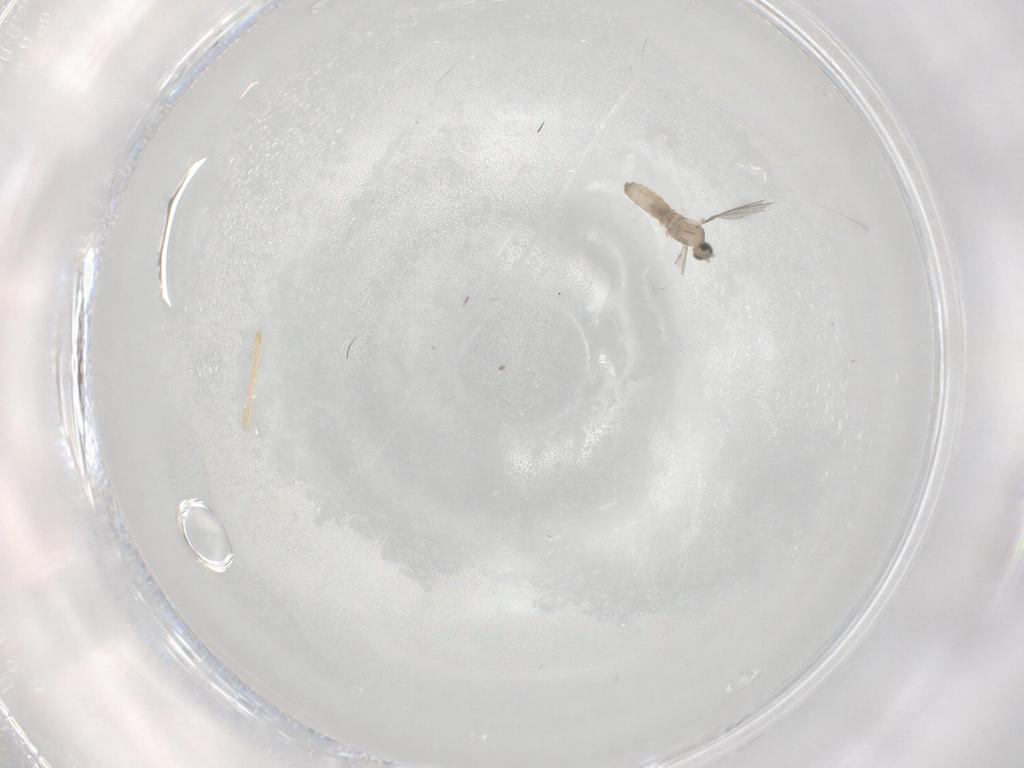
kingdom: Animalia
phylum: Arthropoda
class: Insecta
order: Diptera
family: Cecidomyiidae
